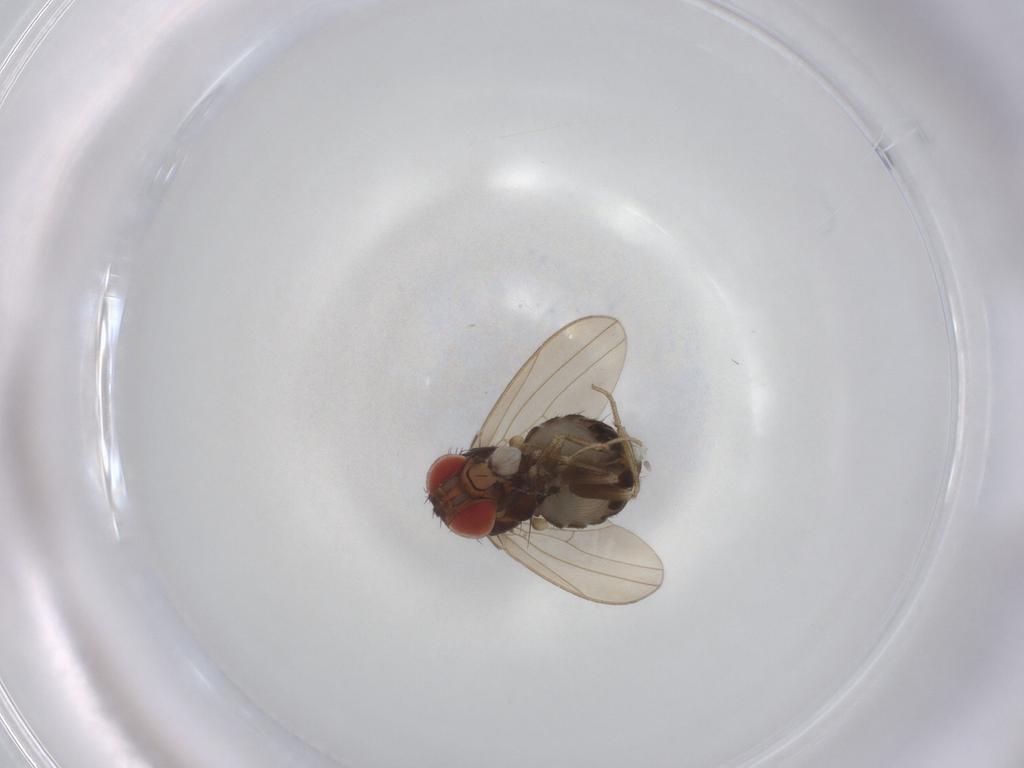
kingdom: Animalia
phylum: Arthropoda
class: Insecta
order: Diptera
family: Drosophilidae
